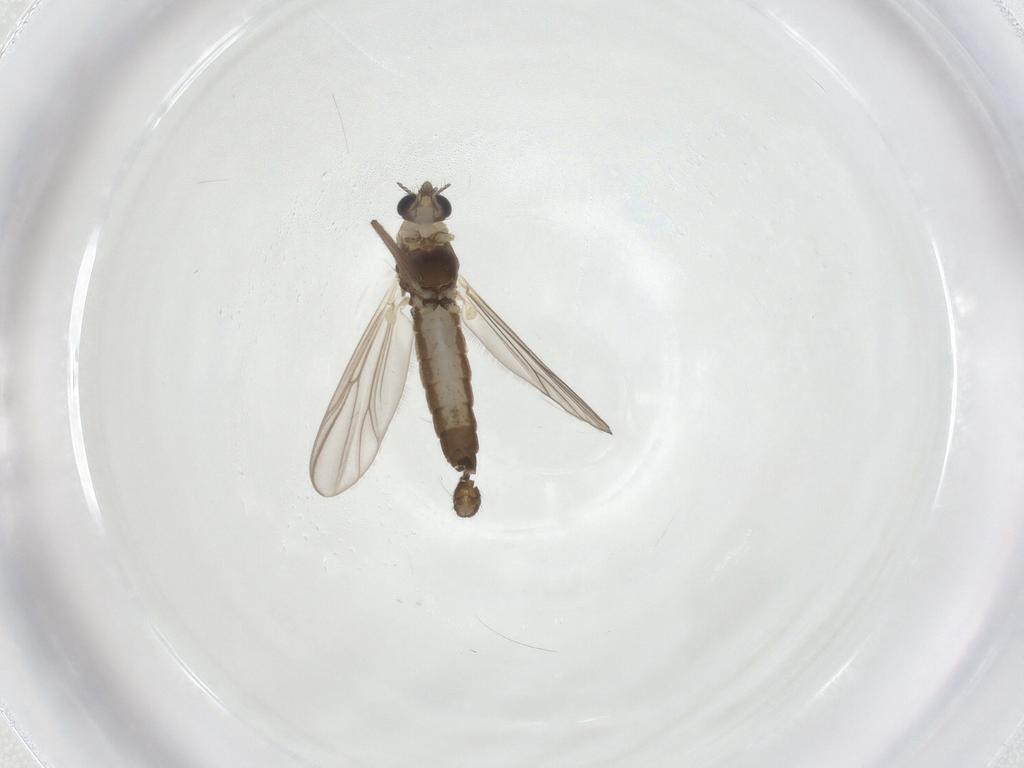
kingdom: Animalia
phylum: Arthropoda
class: Insecta
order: Diptera
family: Chironomidae
